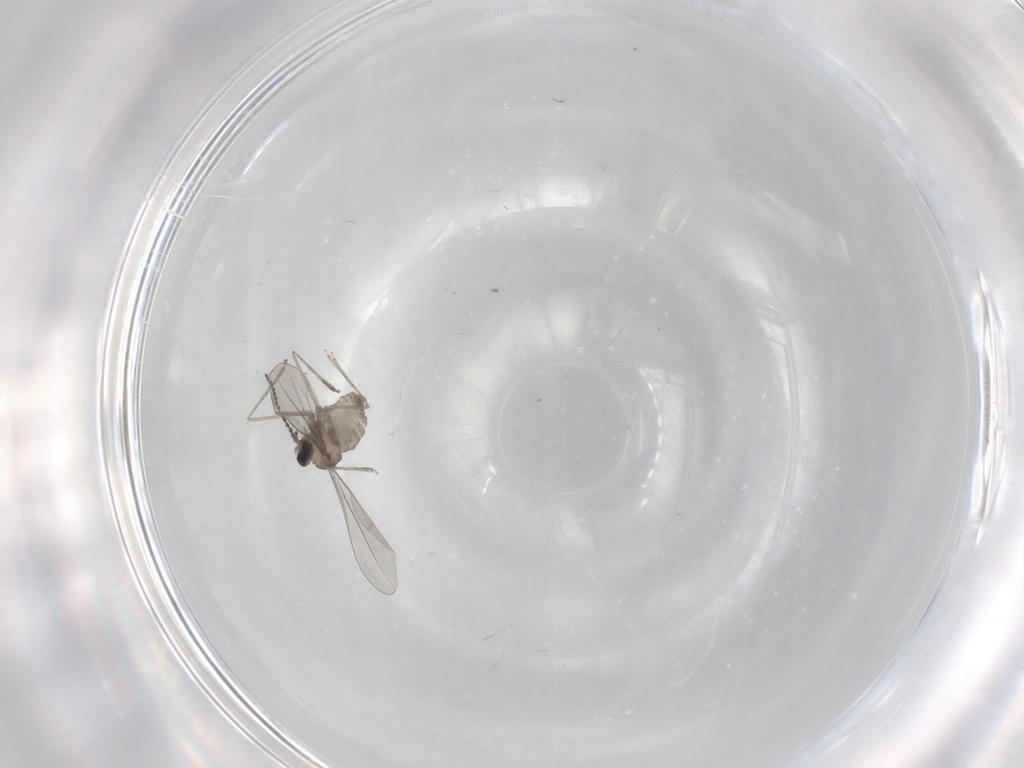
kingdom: Animalia
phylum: Arthropoda
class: Insecta
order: Diptera
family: Cecidomyiidae
